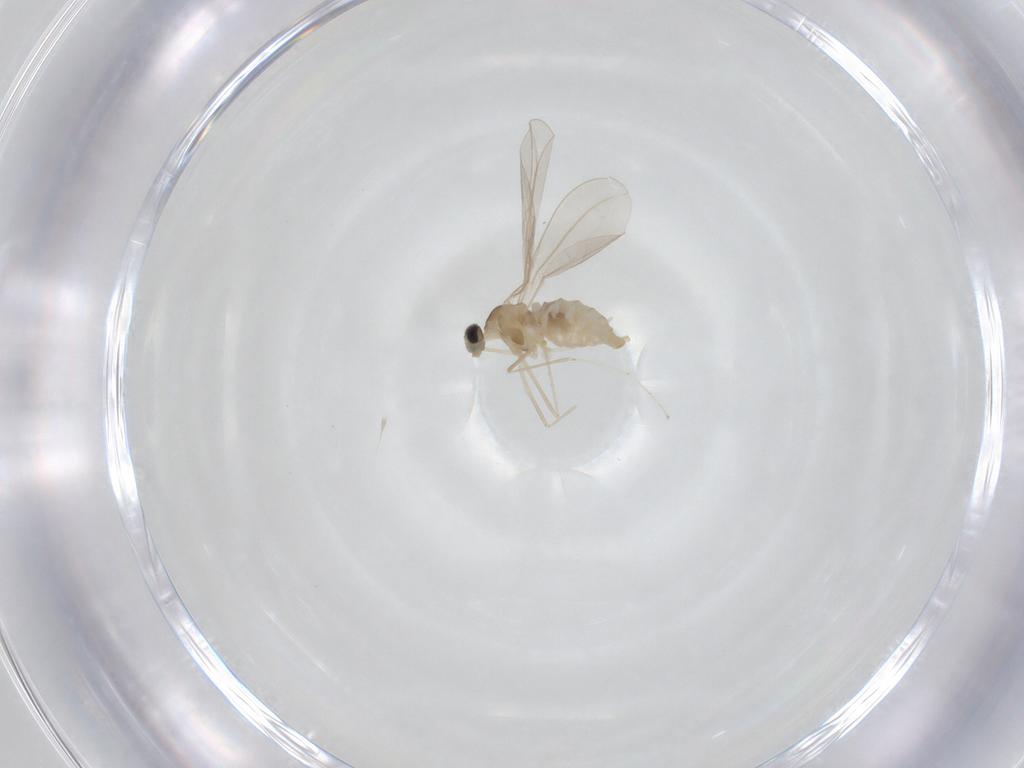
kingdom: Animalia
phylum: Arthropoda
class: Insecta
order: Diptera
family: Cecidomyiidae
